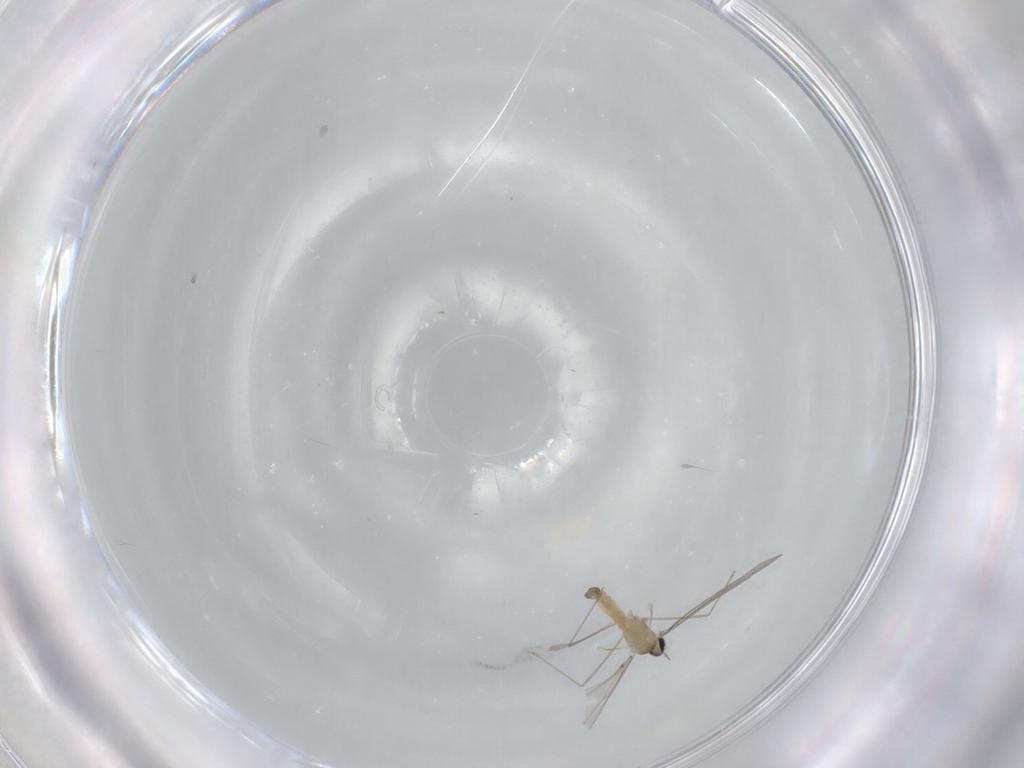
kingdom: Animalia
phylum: Arthropoda
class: Insecta
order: Diptera
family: Cecidomyiidae
